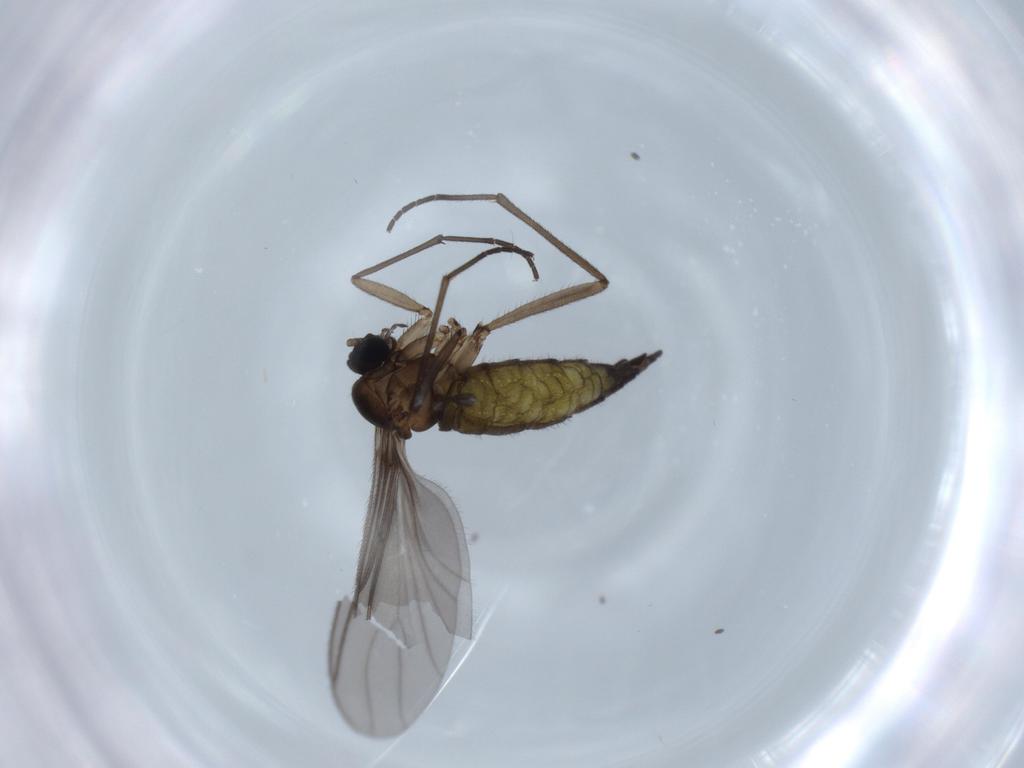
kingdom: Animalia
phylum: Arthropoda
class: Insecta
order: Diptera
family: Sciaridae
